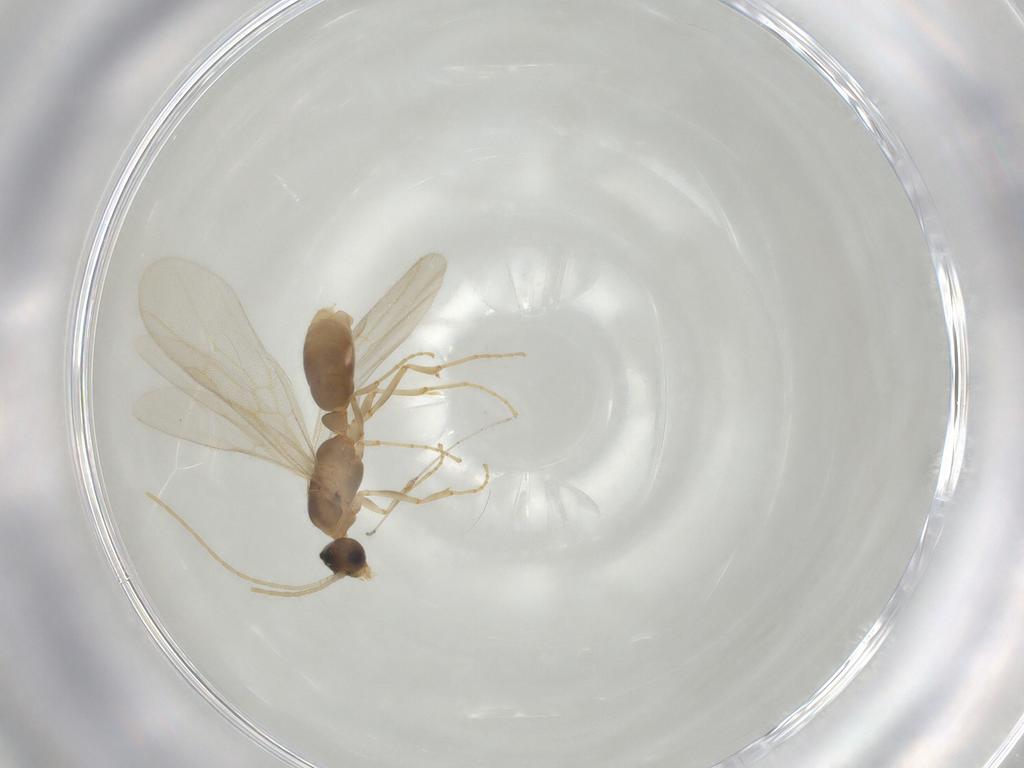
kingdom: Animalia
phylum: Arthropoda
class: Insecta
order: Hymenoptera
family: Formicidae
